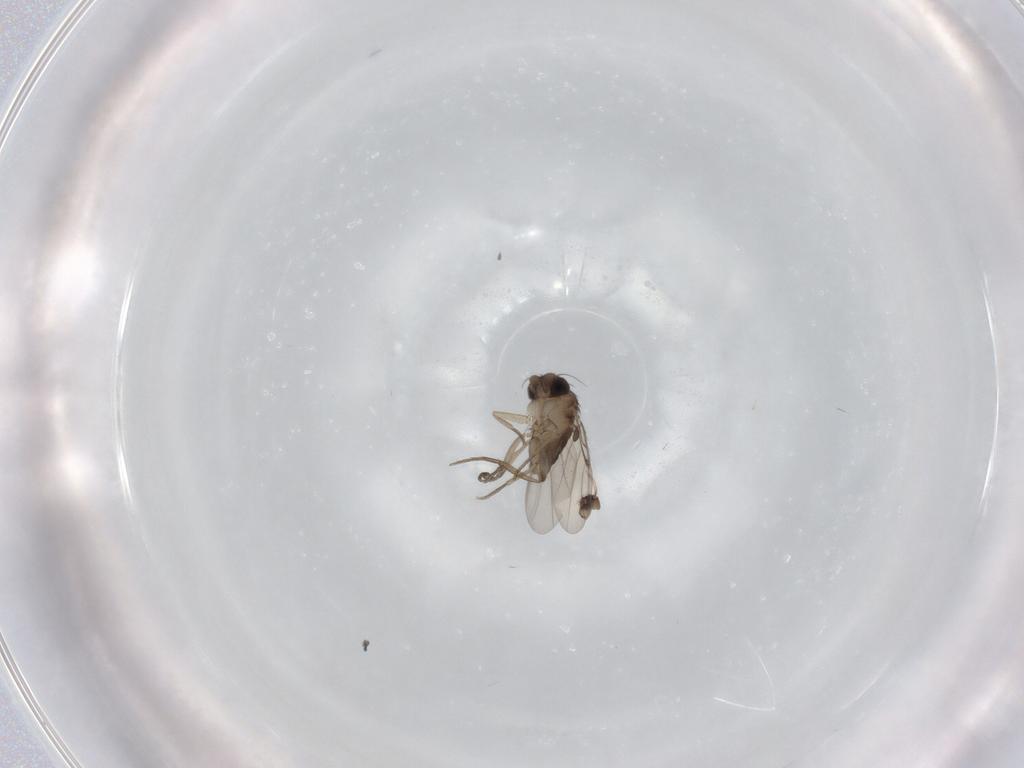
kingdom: Animalia
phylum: Arthropoda
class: Insecta
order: Diptera
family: Phoridae
